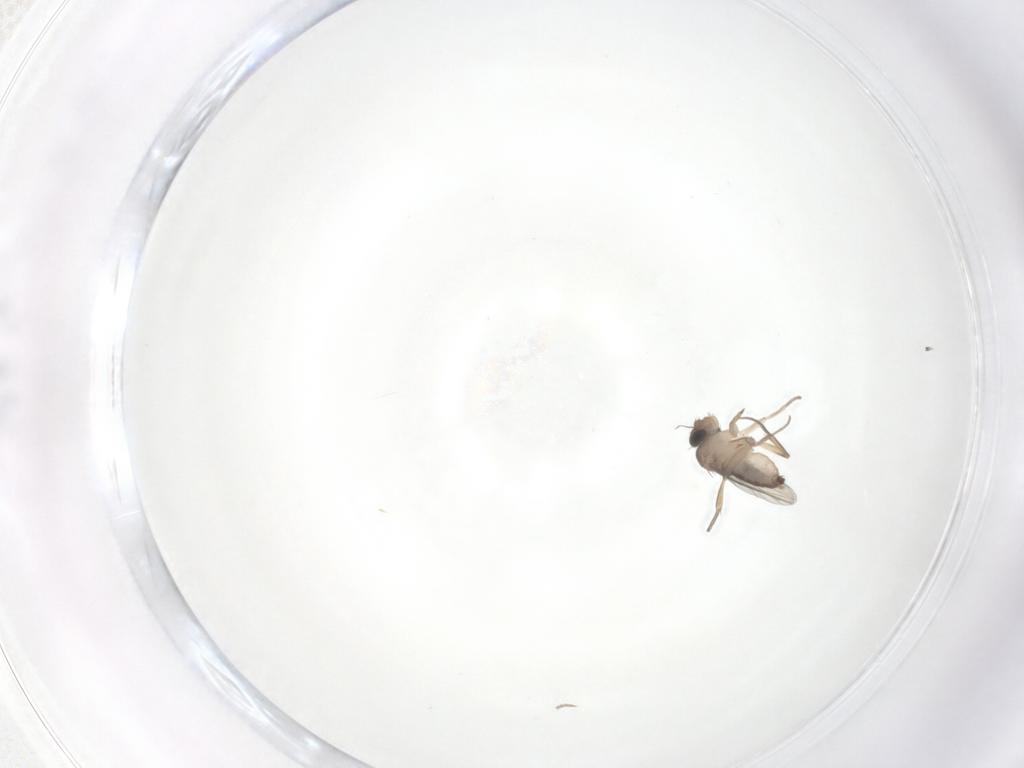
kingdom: Animalia
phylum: Arthropoda
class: Insecta
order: Diptera
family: Phoridae
